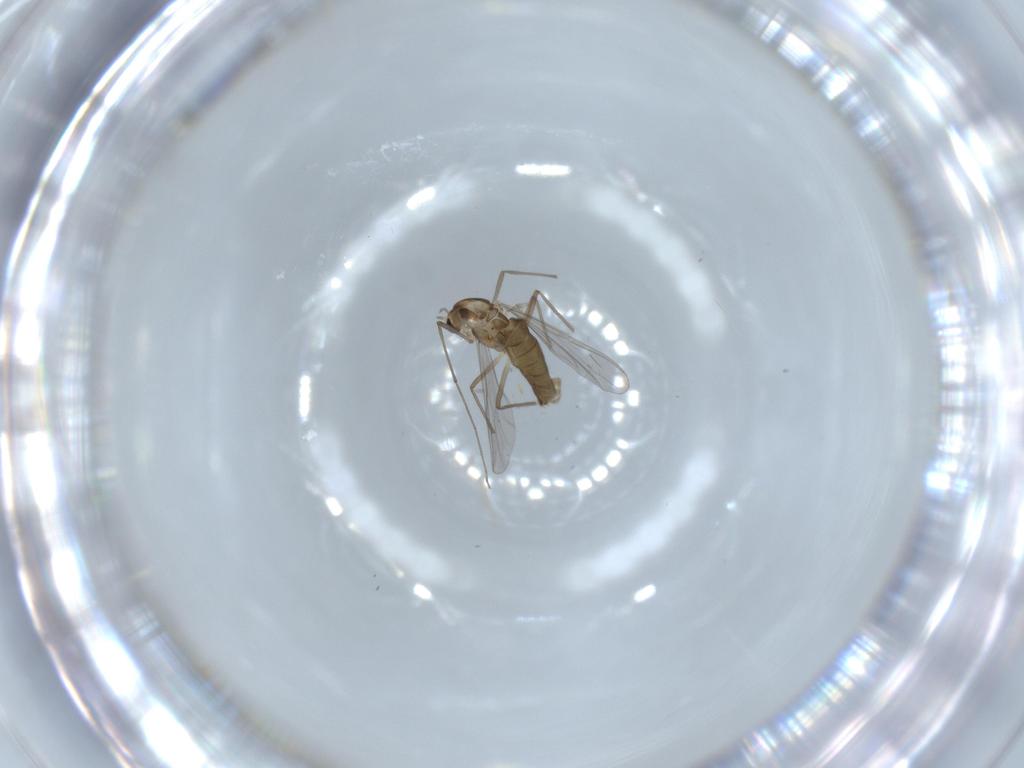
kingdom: Animalia
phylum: Arthropoda
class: Insecta
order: Diptera
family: Chironomidae
